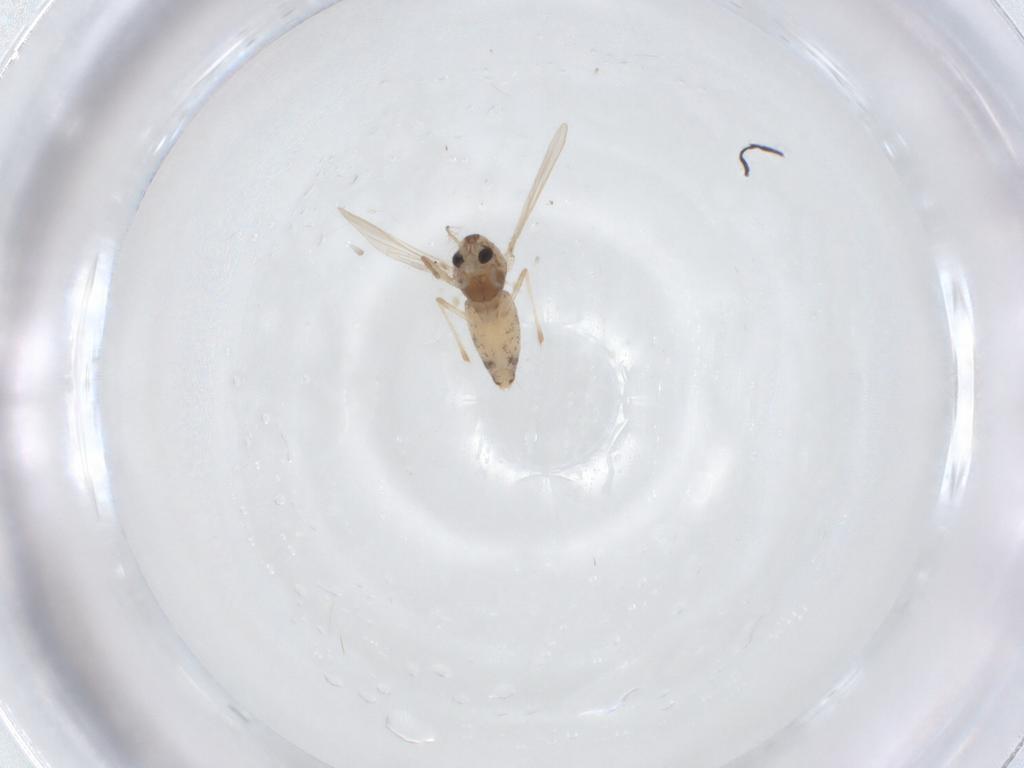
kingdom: Animalia
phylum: Arthropoda
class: Insecta
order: Diptera
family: Chironomidae
